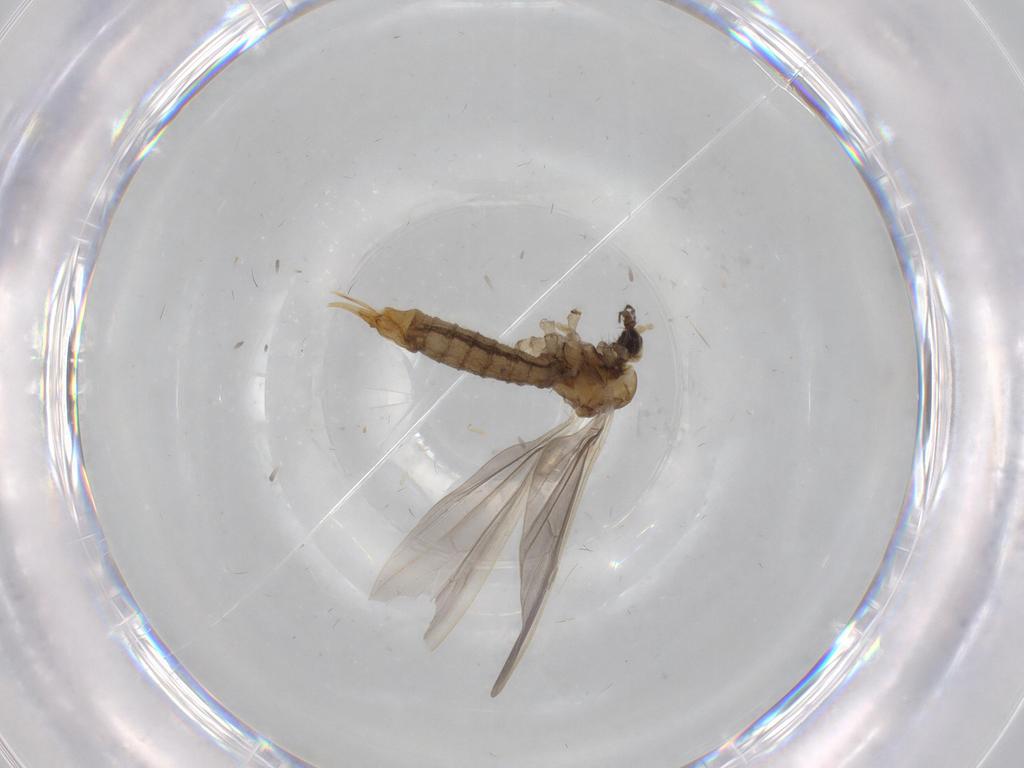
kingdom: Animalia
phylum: Arthropoda
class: Insecta
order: Diptera
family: Limoniidae
